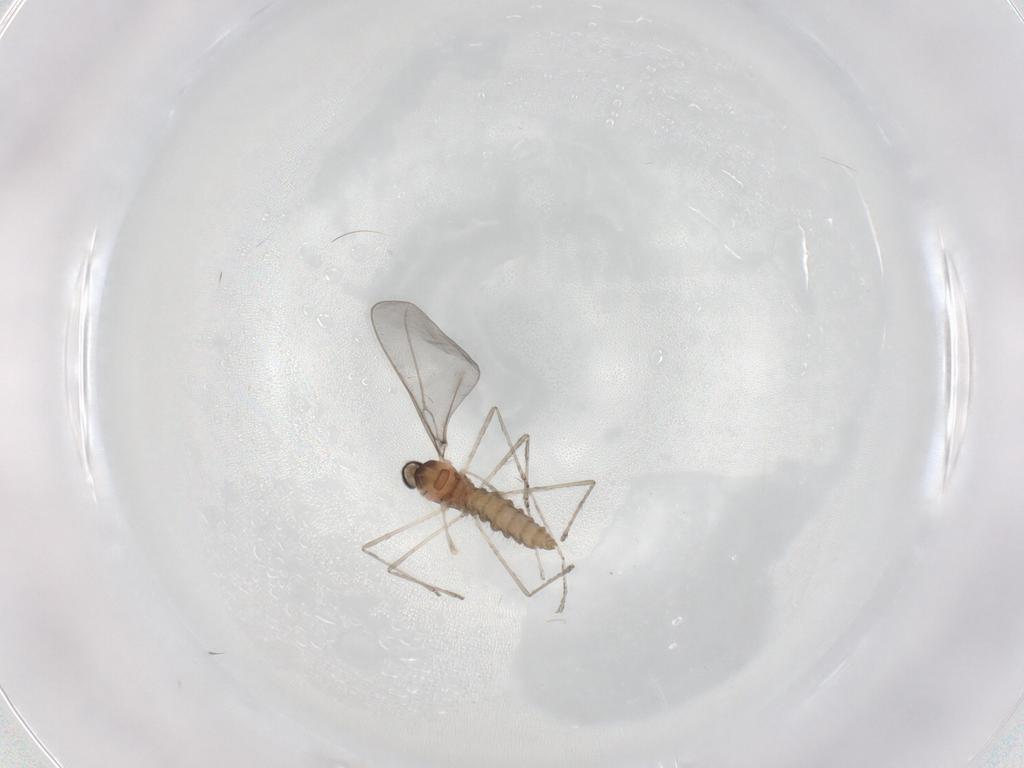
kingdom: Animalia
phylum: Arthropoda
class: Insecta
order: Diptera
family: Cecidomyiidae
